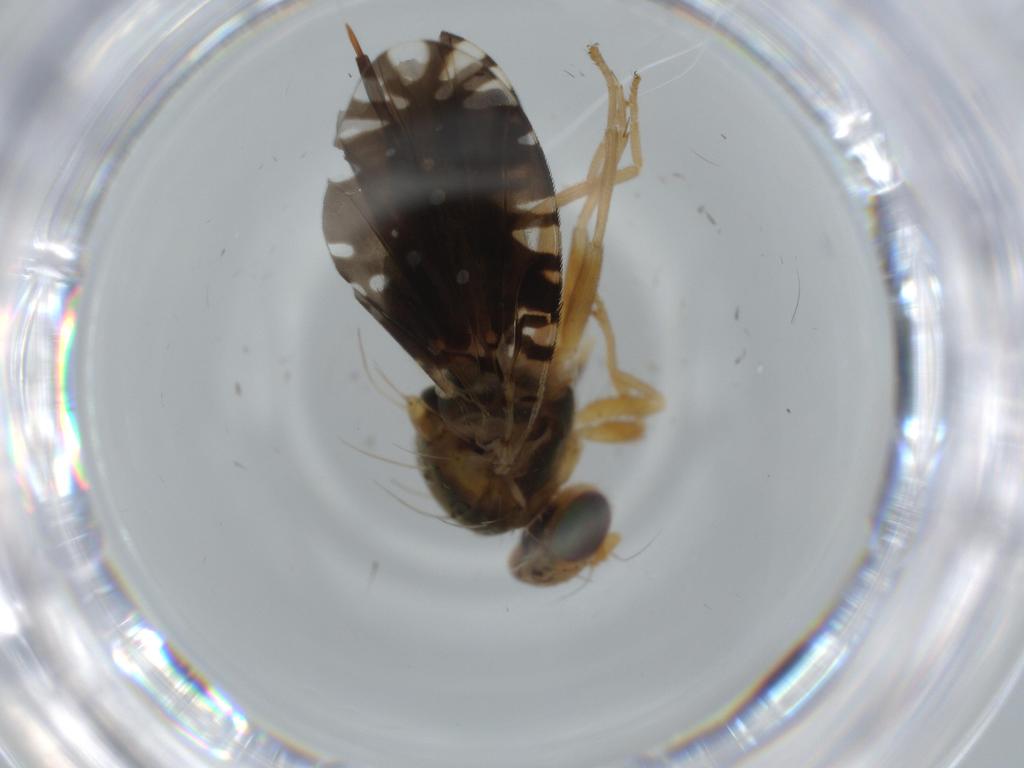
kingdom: Animalia
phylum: Arthropoda
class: Insecta
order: Diptera
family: Tephritidae
